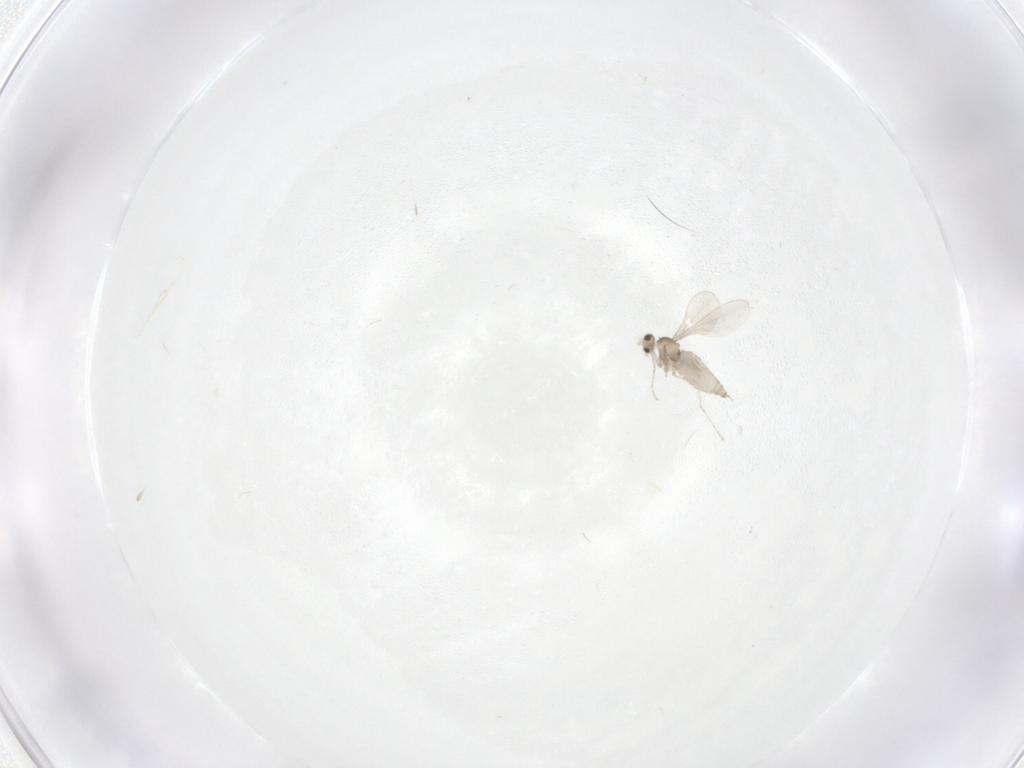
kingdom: Animalia
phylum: Arthropoda
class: Insecta
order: Diptera
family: Cecidomyiidae
